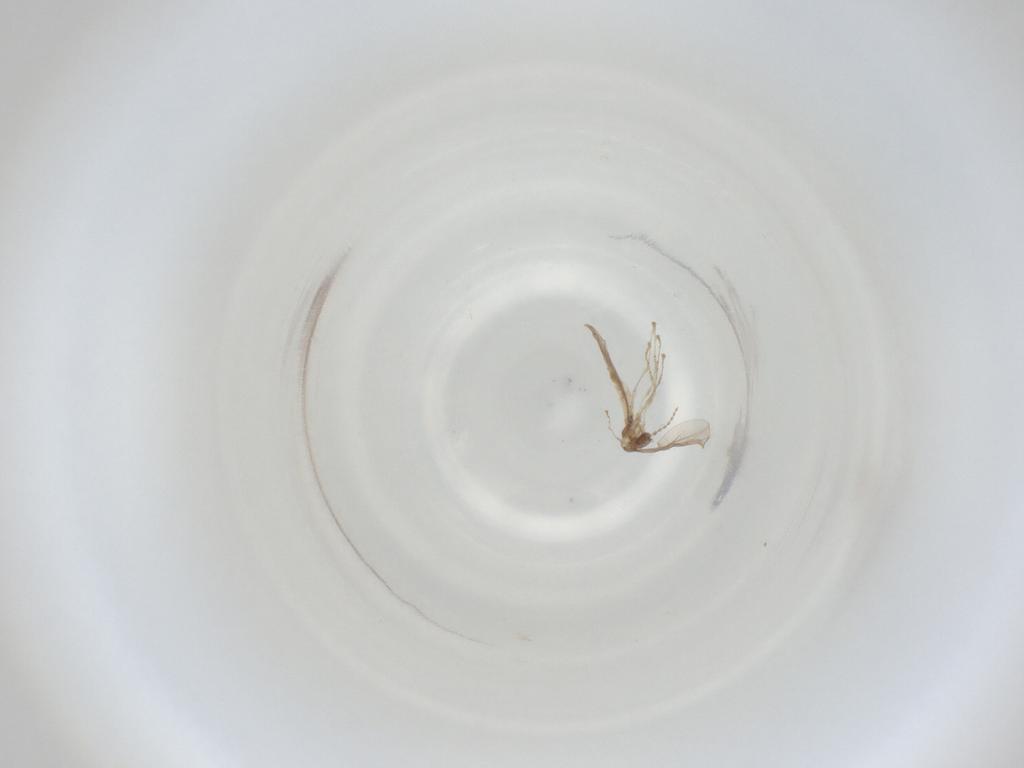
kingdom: Animalia
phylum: Arthropoda
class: Insecta
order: Diptera
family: Cecidomyiidae
